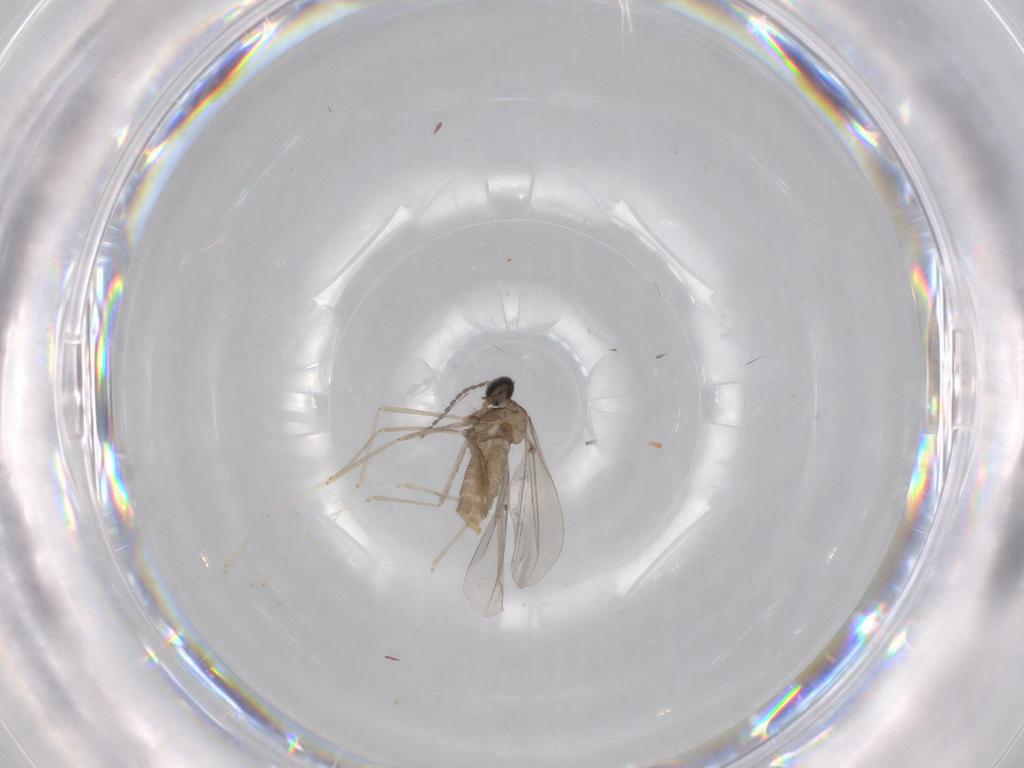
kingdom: Animalia
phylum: Arthropoda
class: Insecta
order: Diptera
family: Cecidomyiidae
